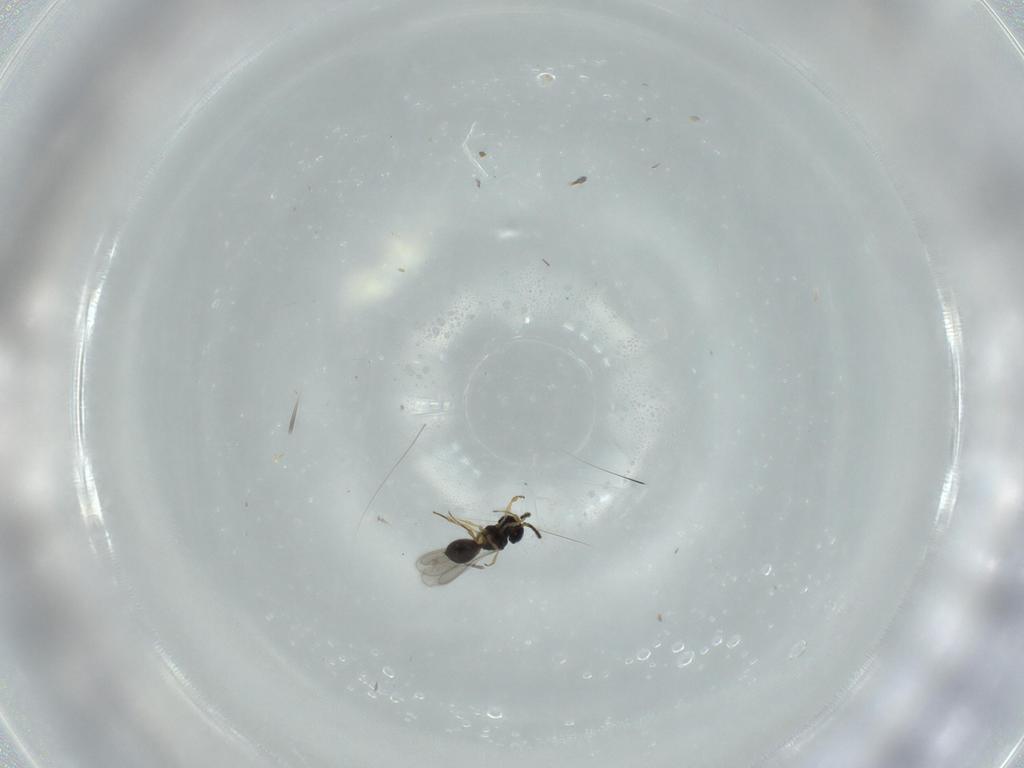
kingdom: Animalia
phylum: Arthropoda
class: Insecta
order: Hymenoptera
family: Scelionidae
